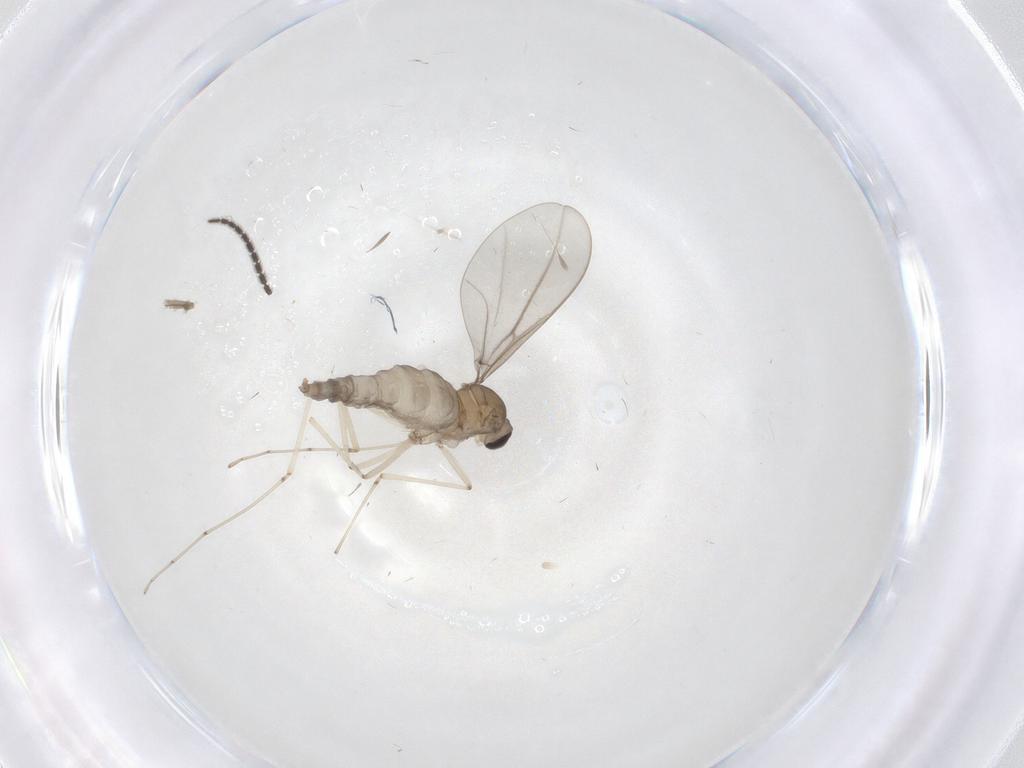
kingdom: Animalia
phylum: Arthropoda
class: Insecta
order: Diptera
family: Cecidomyiidae
